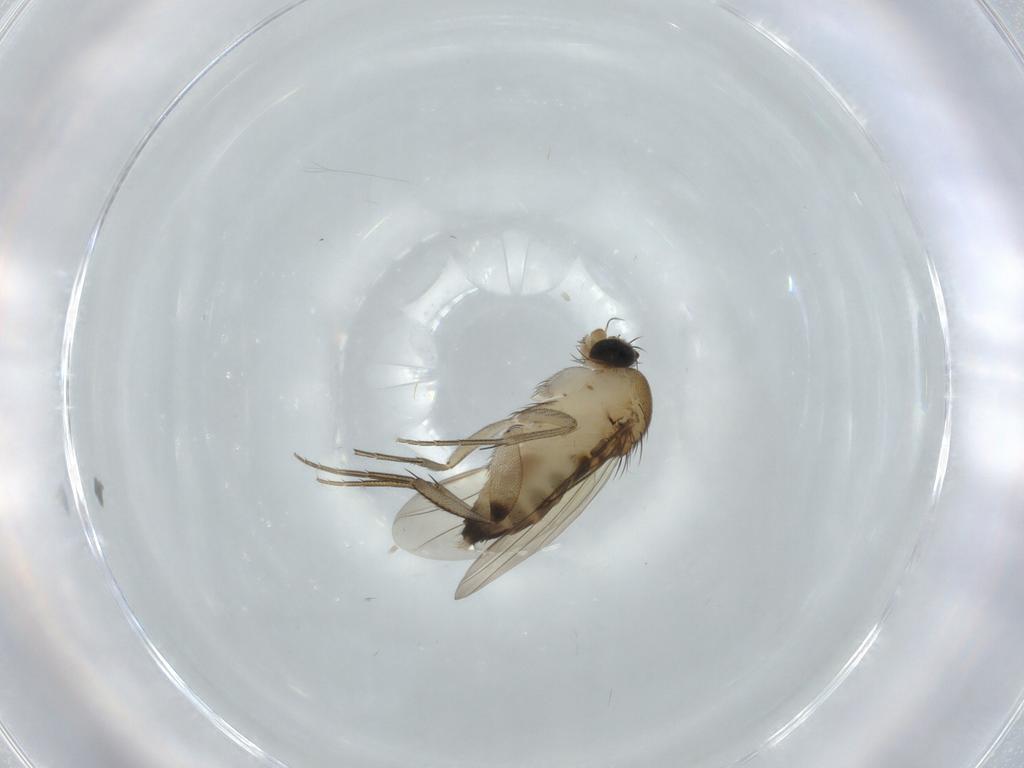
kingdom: Animalia
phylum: Arthropoda
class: Insecta
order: Diptera
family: Phoridae
